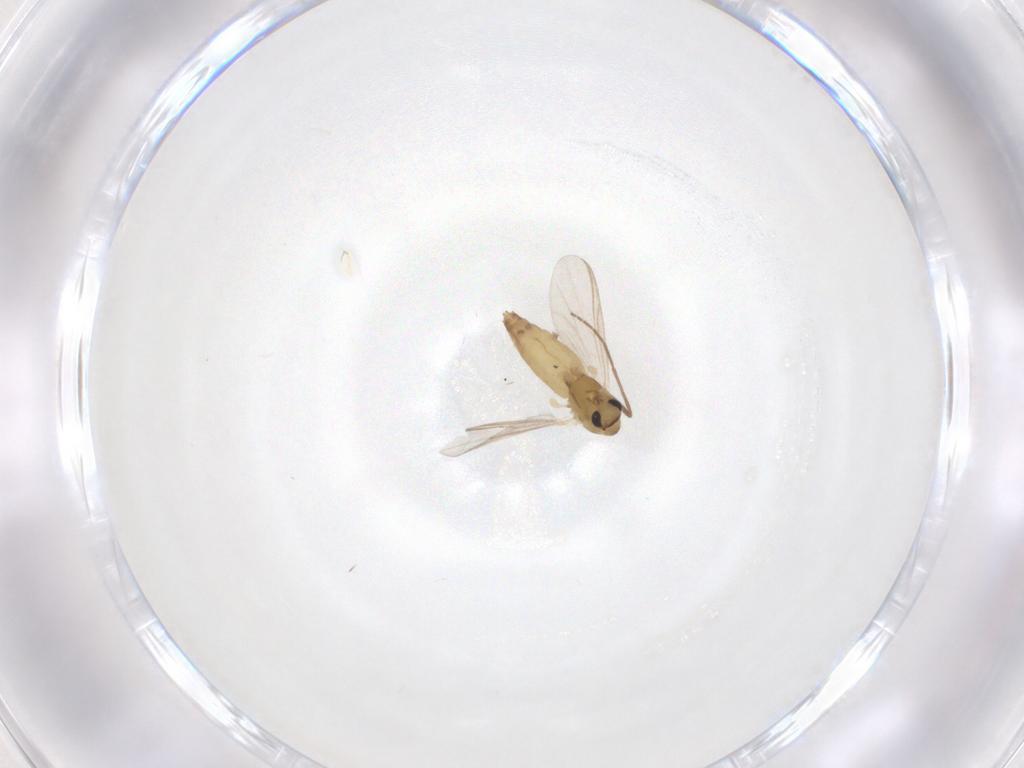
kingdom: Animalia
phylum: Arthropoda
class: Insecta
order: Diptera
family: Chironomidae
